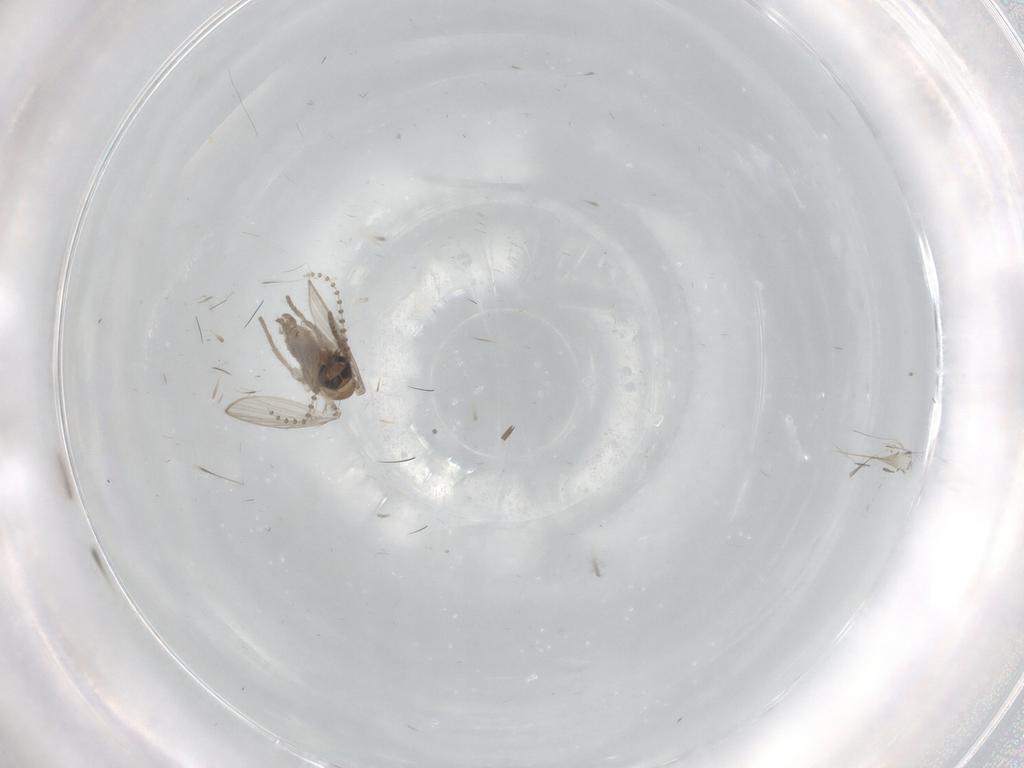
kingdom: Animalia
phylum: Arthropoda
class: Insecta
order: Diptera
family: Psychodidae
